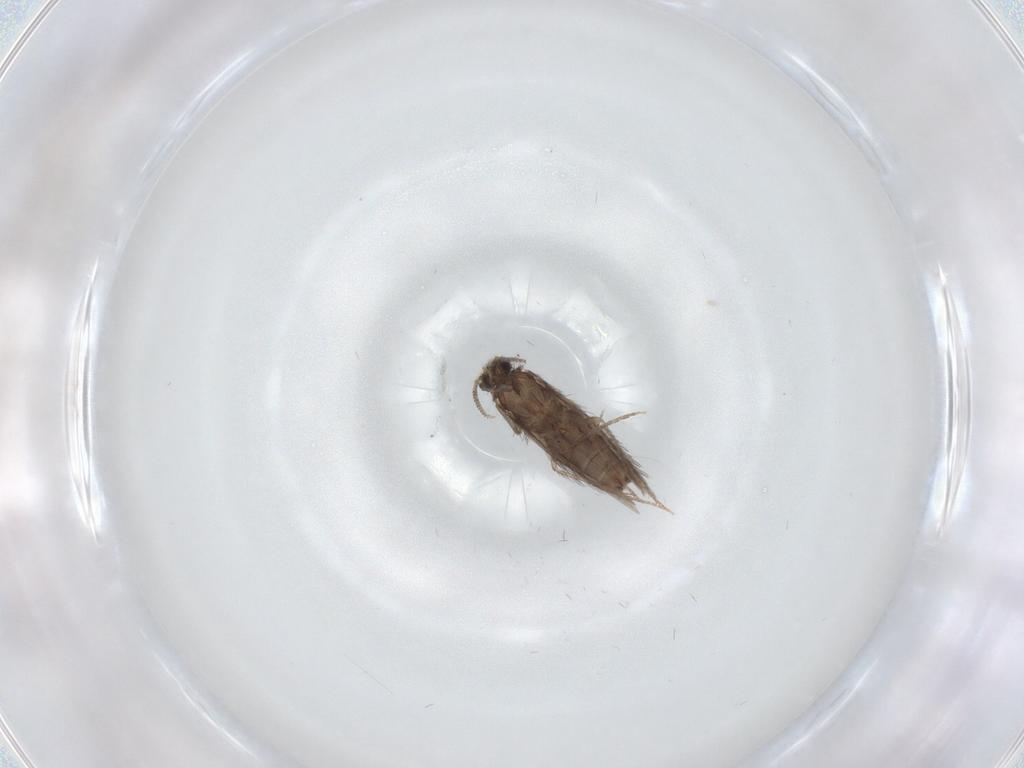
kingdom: Animalia
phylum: Arthropoda
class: Insecta
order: Trichoptera
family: Hydroptilidae
